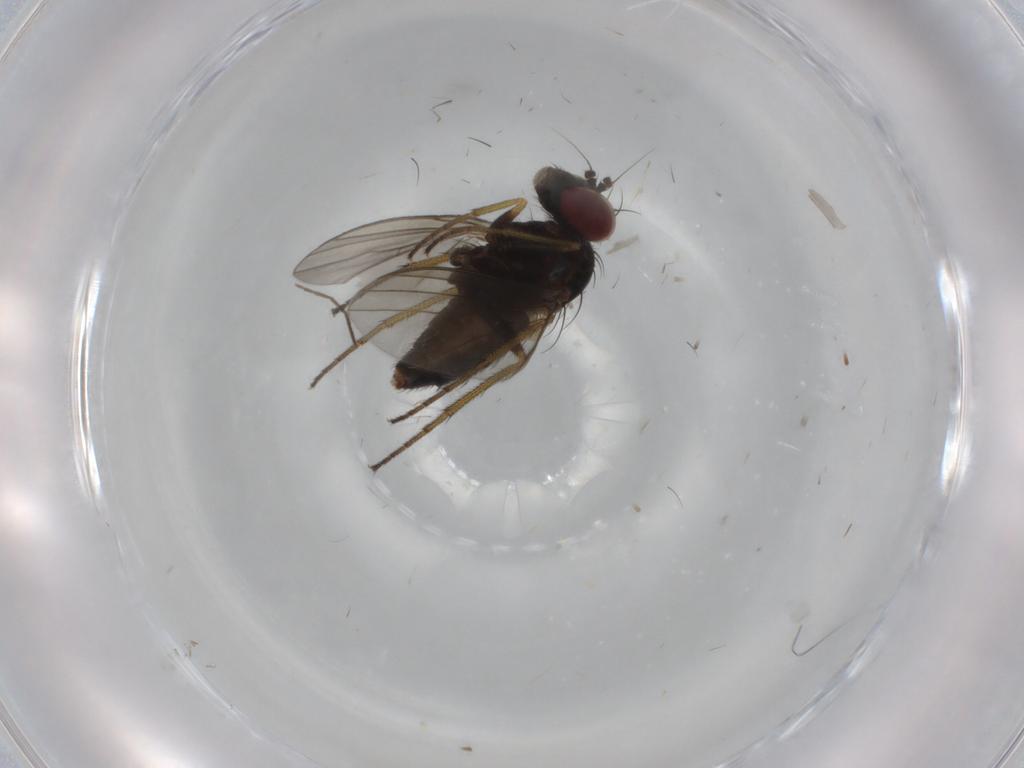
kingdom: Animalia
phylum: Arthropoda
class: Insecta
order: Diptera
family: Dolichopodidae
